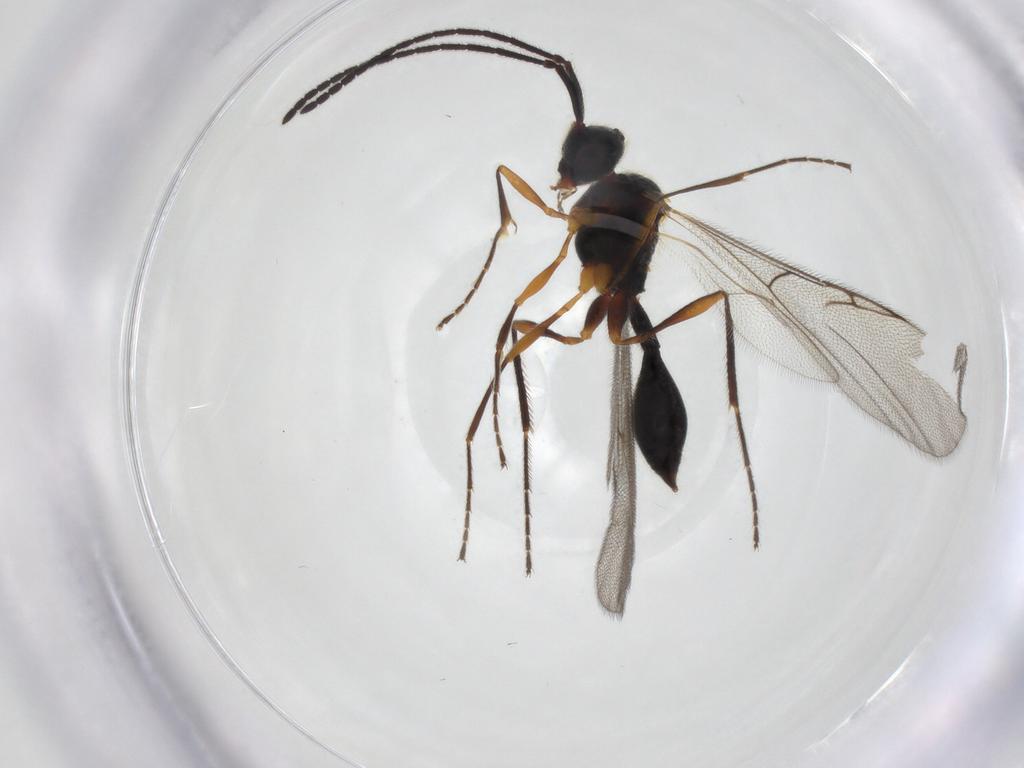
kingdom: Animalia
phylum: Arthropoda
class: Insecta
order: Hymenoptera
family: Diapriidae
